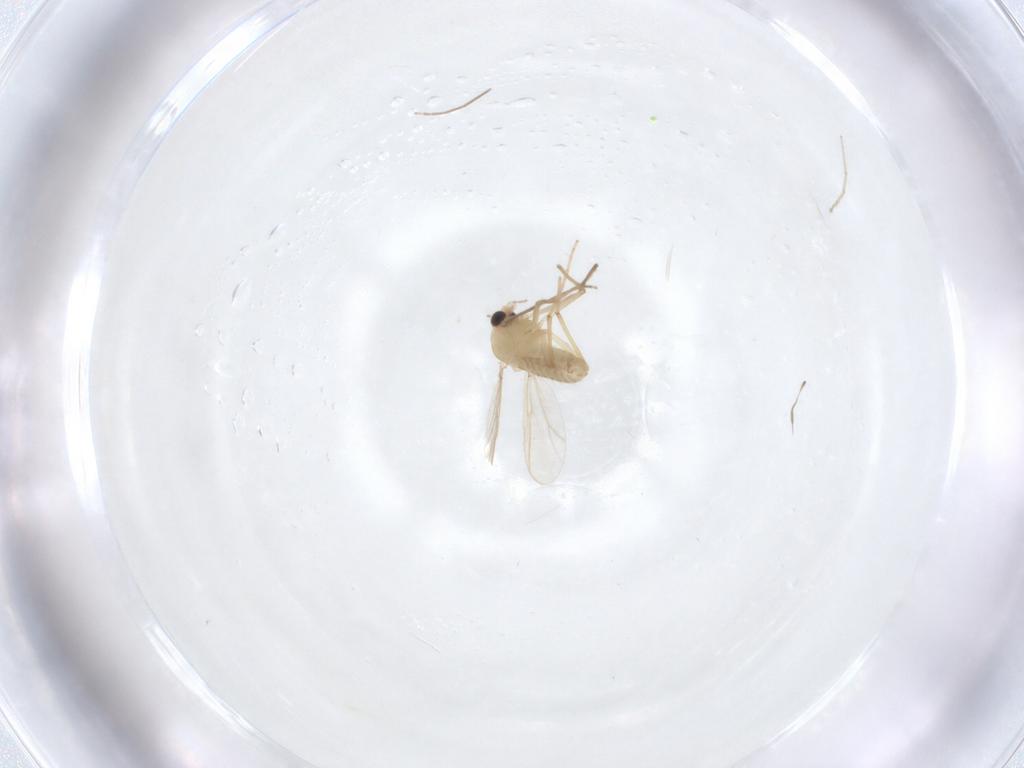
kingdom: Animalia
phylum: Arthropoda
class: Insecta
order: Diptera
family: Chironomidae
